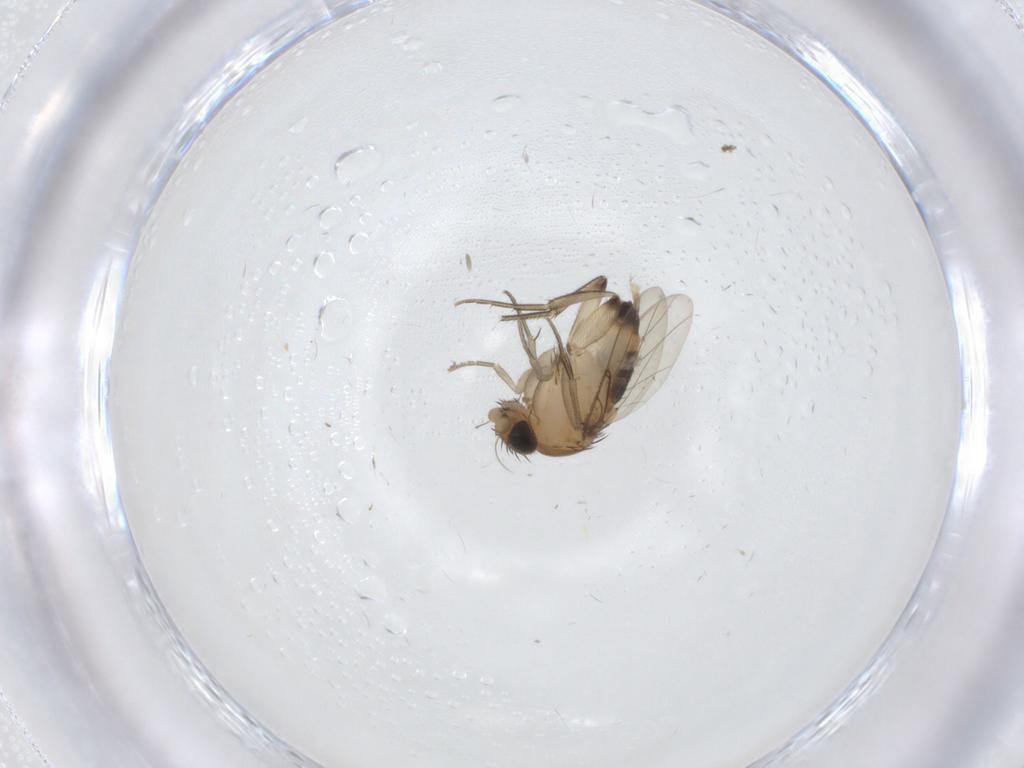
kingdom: Animalia
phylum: Arthropoda
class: Insecta
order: Diptera
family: Phoridae
